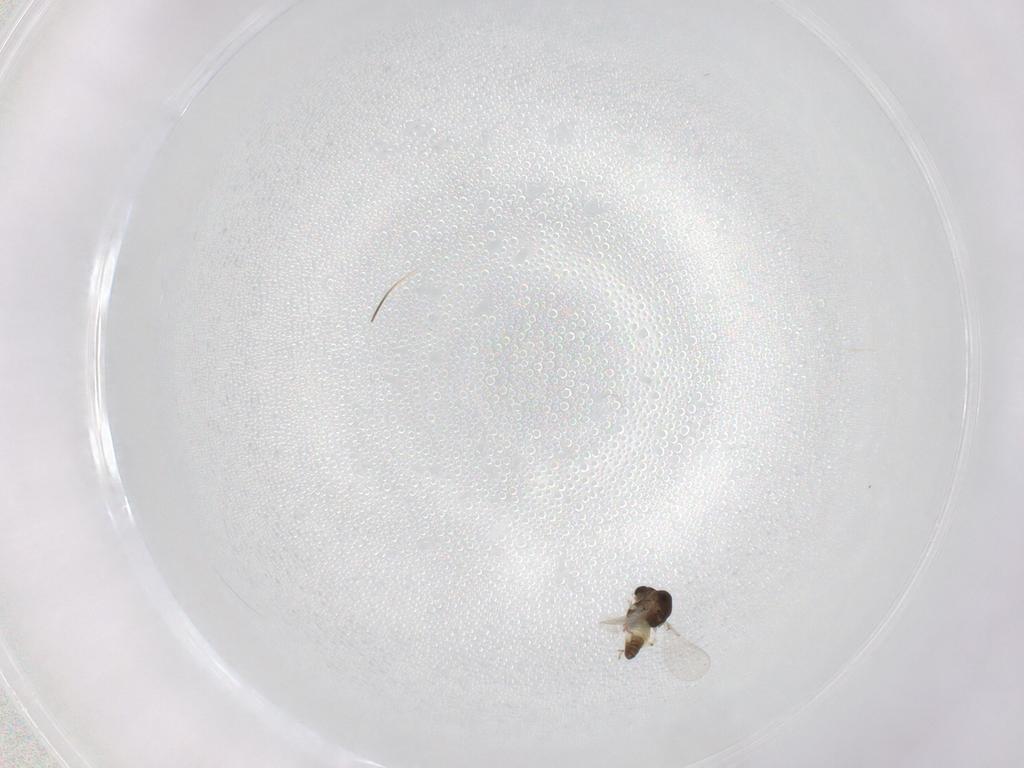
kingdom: Animalia
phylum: Arthropoda
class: Insecta
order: Diptera
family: Chironomidae
